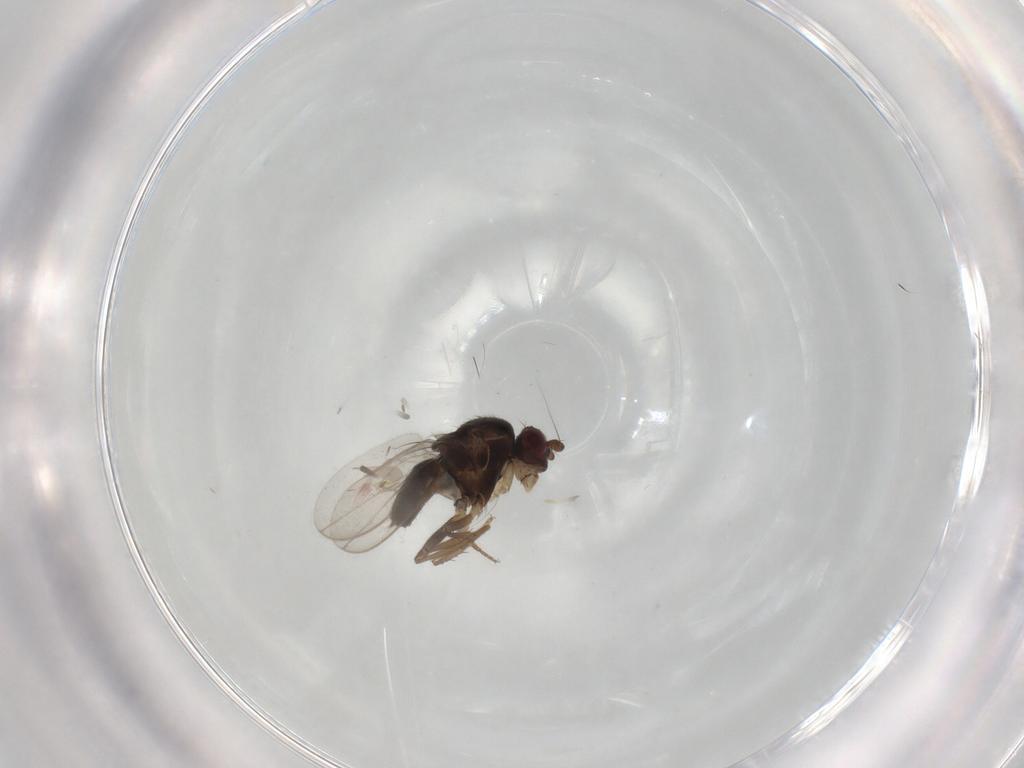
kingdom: Animalia
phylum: Arthropoda
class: Insecta
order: Diptera
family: Sphaeroceridae
